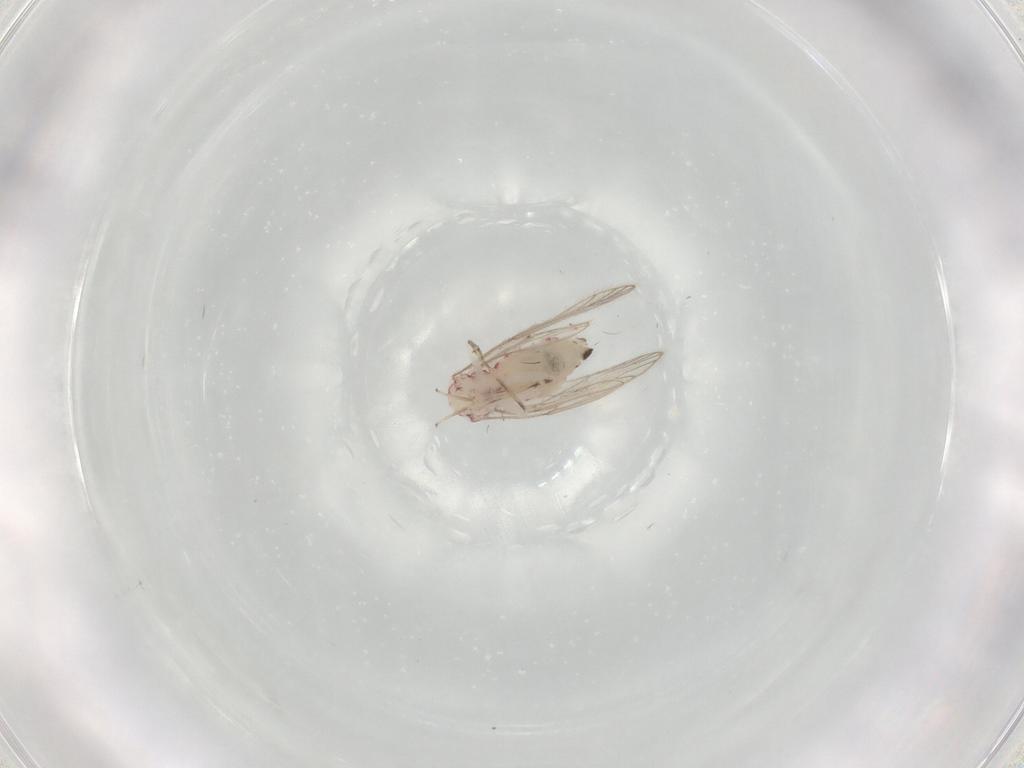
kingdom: Animalia
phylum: Arthropoda
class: Insecta
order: Psocodea
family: Caeciliusidae
